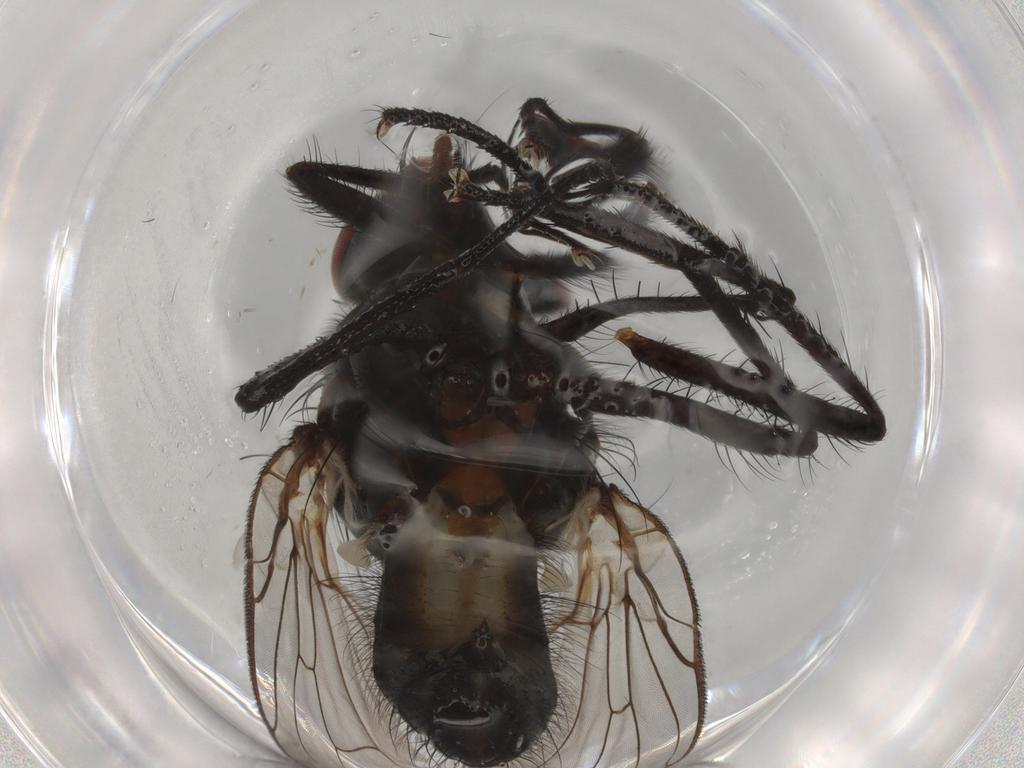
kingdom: Animalia
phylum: Arthropoda
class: Insecta
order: Diptera
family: Anthomyiidae
